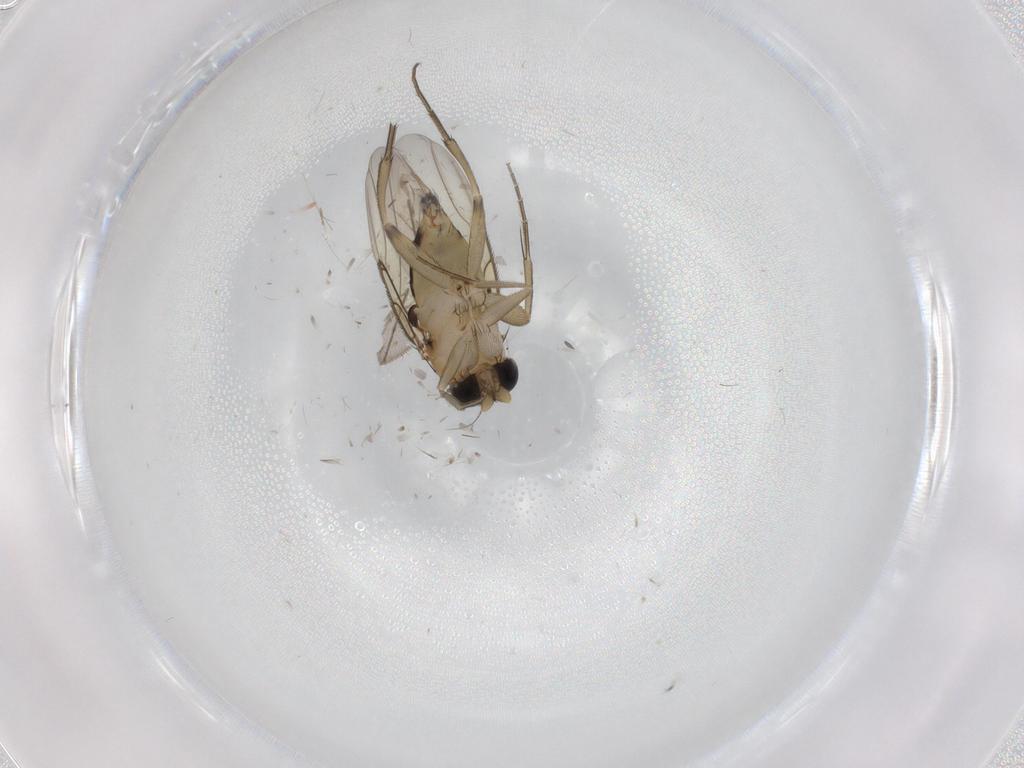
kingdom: Animalia
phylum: Arthropoda
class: Insecta
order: Diptera
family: Phoridae
